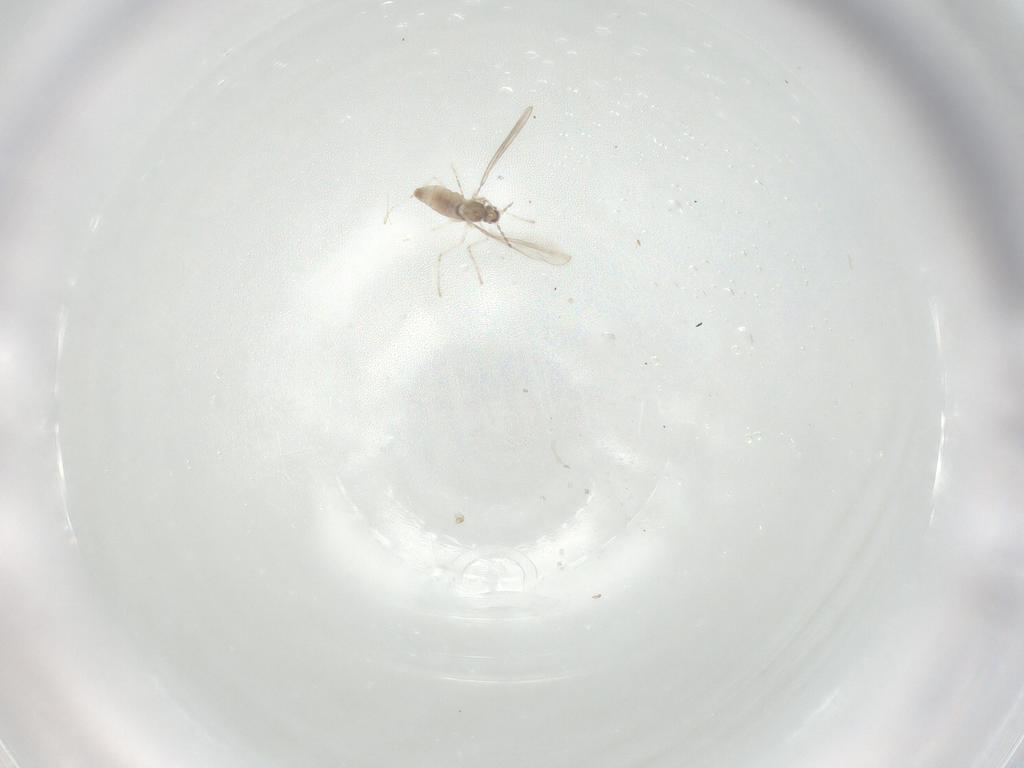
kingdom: Animalia
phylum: Arthropoda
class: Insecta
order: Diptera
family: Cecidomyiidae
